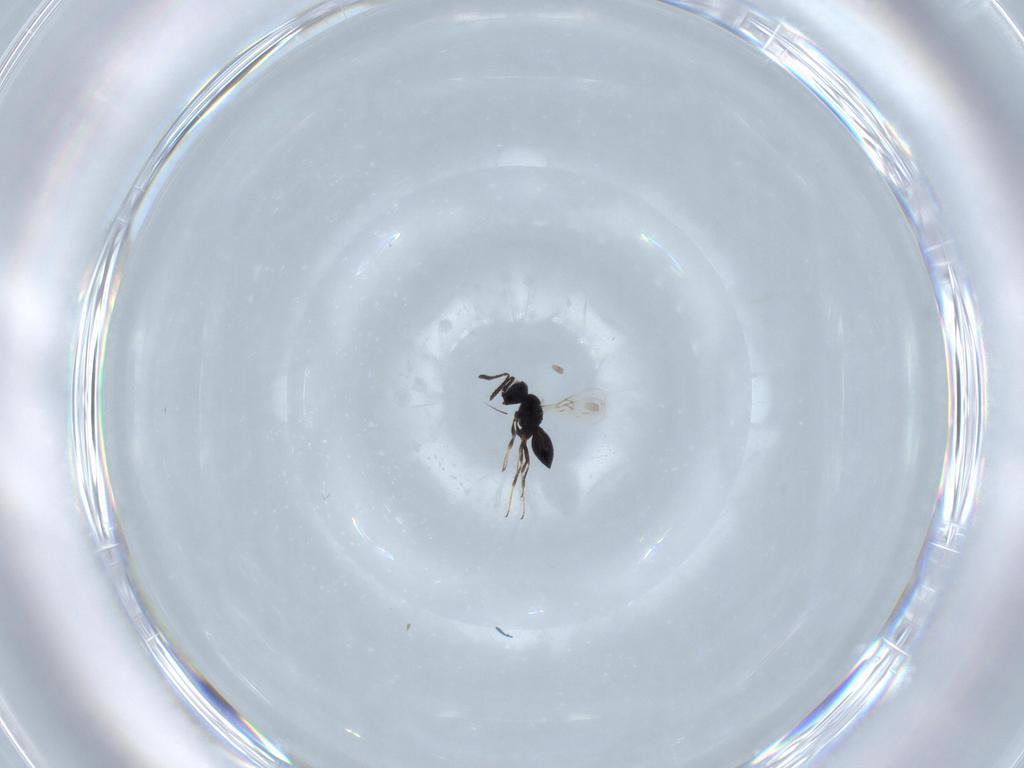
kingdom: Animalia
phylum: Arthropoda
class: Insecta
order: Hymenoptera
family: Scelionidae
